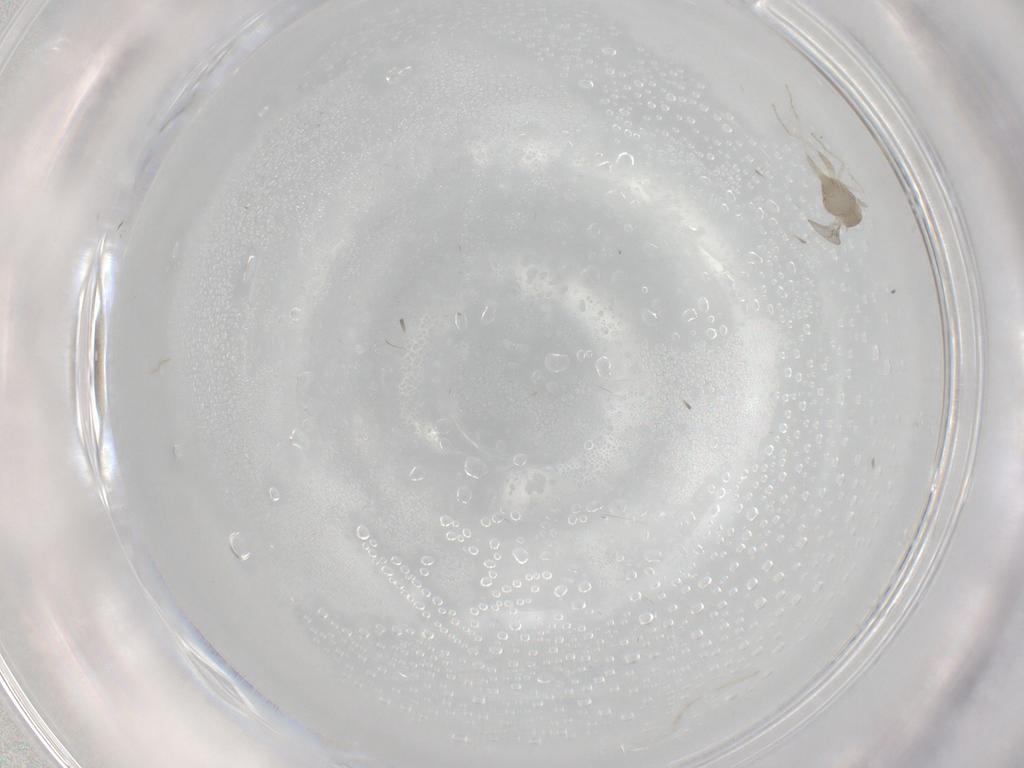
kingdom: Animalia
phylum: Arthropoda
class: Insecta
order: Diptera
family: Cecidomyiidae
